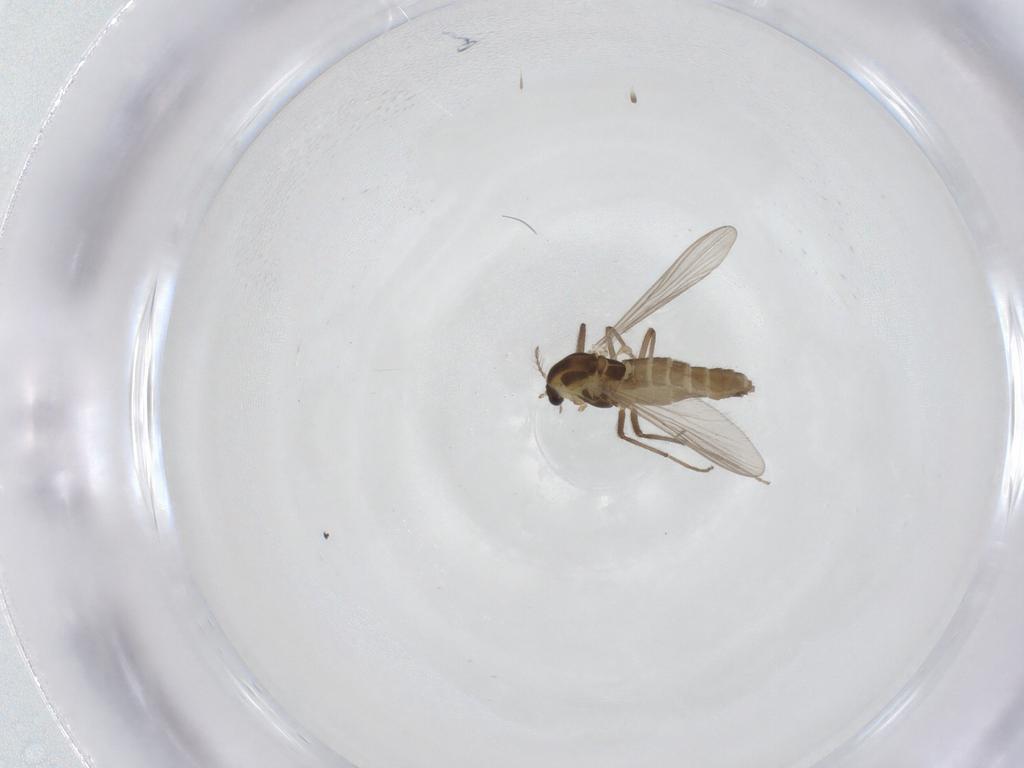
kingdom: Animalia
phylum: Arthropoda
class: Insecta
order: Diptera
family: Chironomidae
